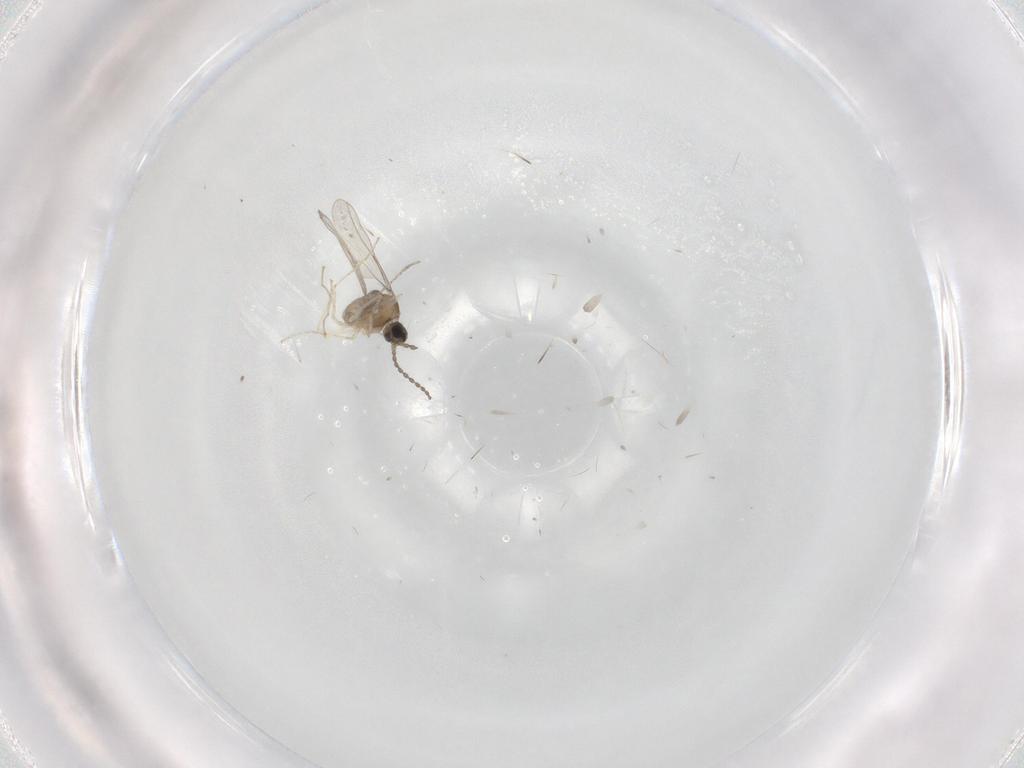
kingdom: Animalia
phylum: Arthropoda
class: Insecta
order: Diptera
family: Cecidomyiidae
